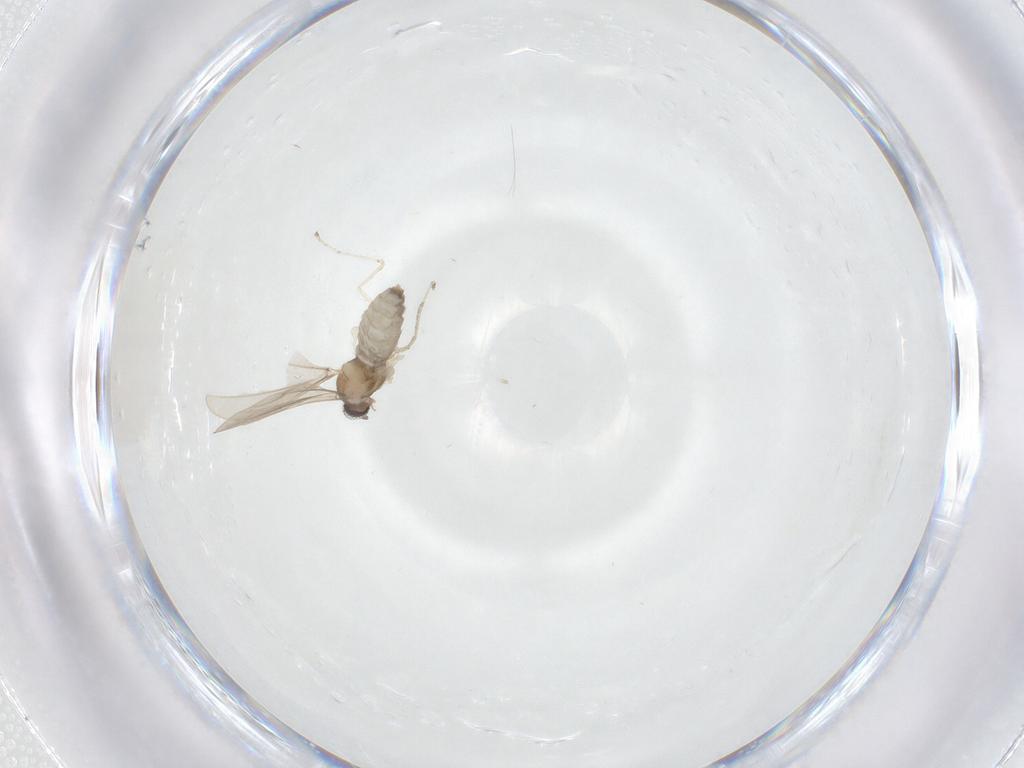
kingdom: Animalia
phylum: Arthropoda
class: Insecta
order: Diptera
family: Cecidomyiidae
